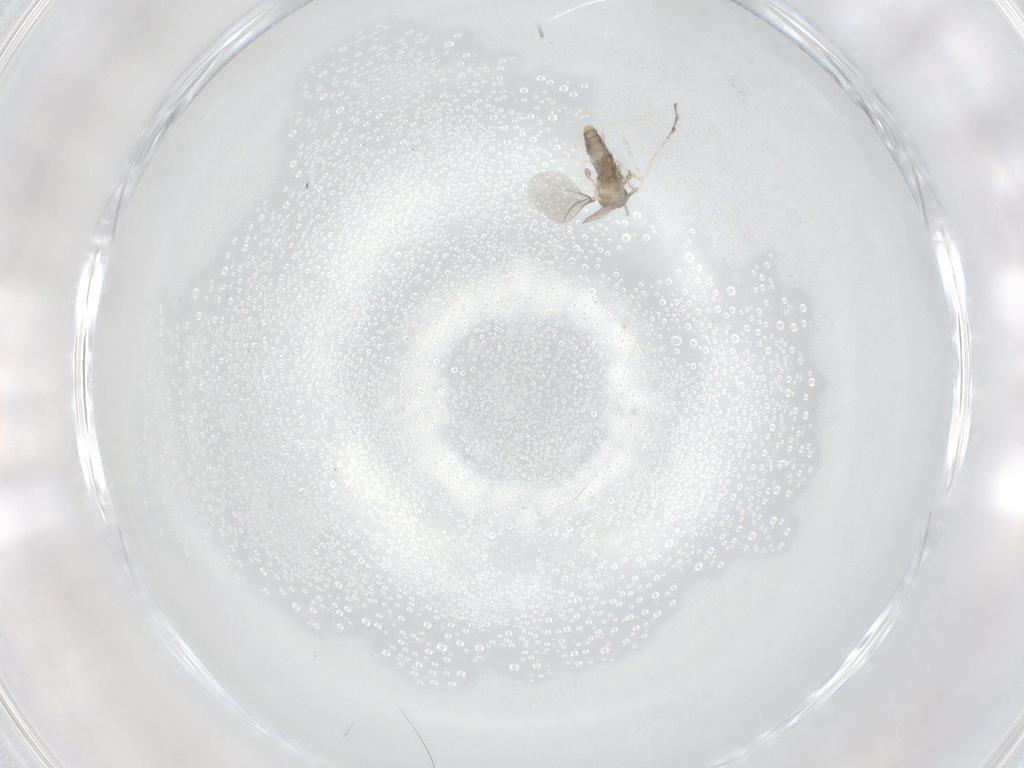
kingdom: Animalia
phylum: Arthropoda
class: Insecta
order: Diptera
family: Cecidomyiidae
